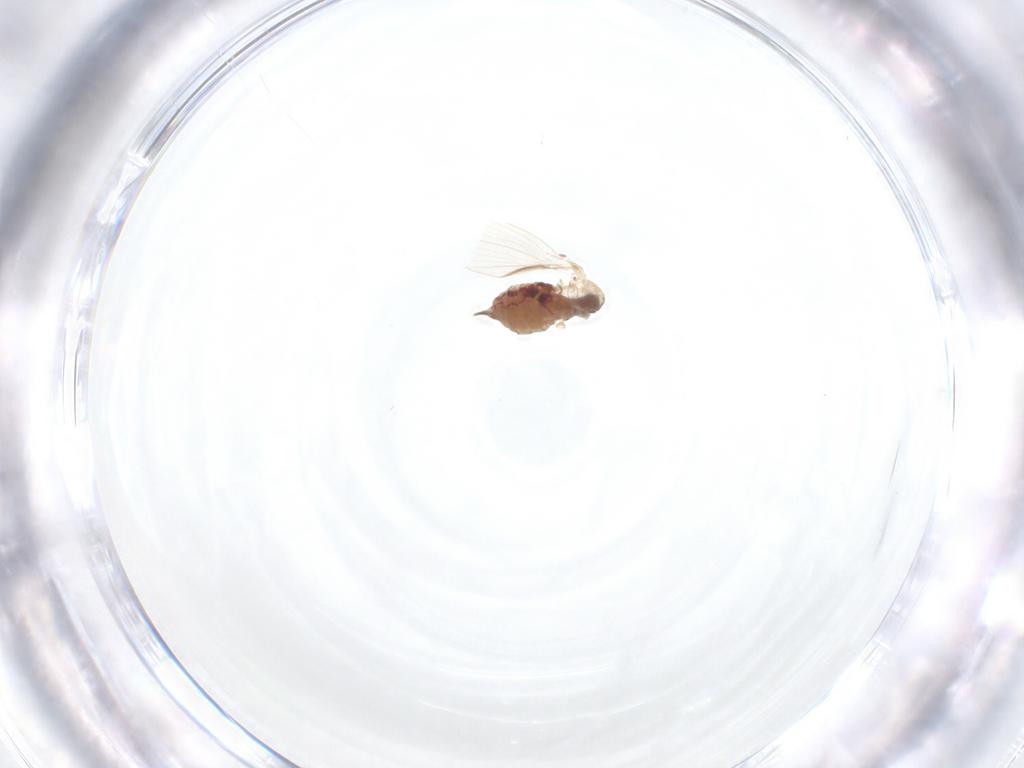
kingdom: Animalia
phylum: Arthropoda
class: Insecta
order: Diptera
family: Psychodidae
